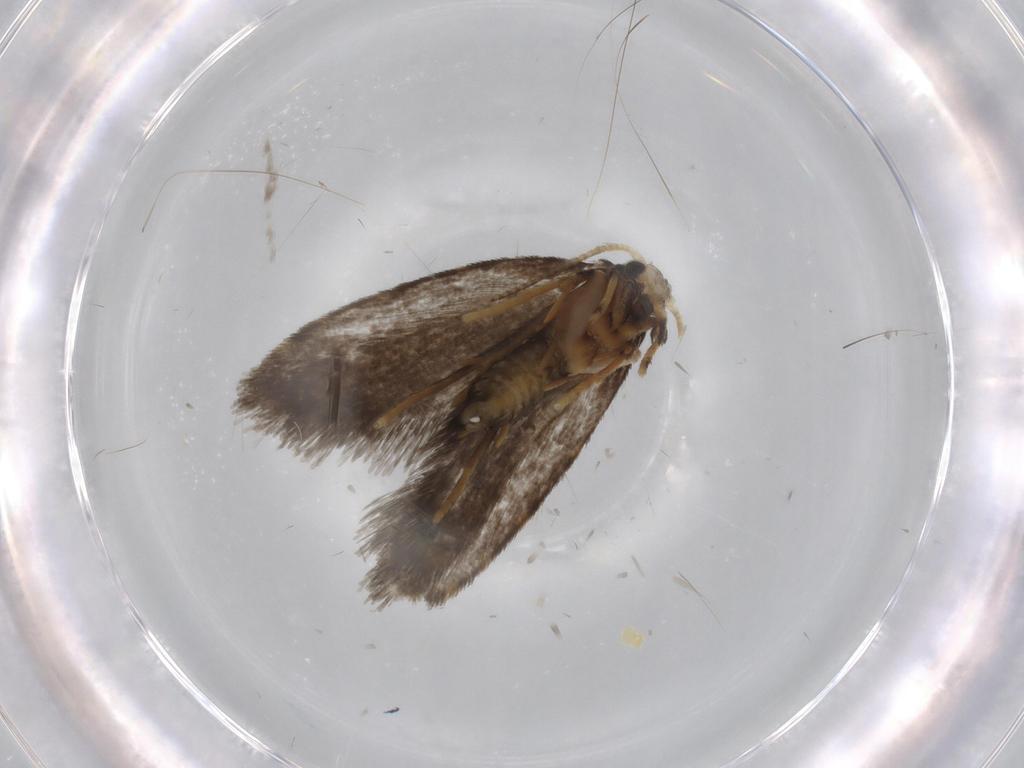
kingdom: Animalia
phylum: Arthropoda
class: Insecta
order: Lepidoptera
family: Psychidae
